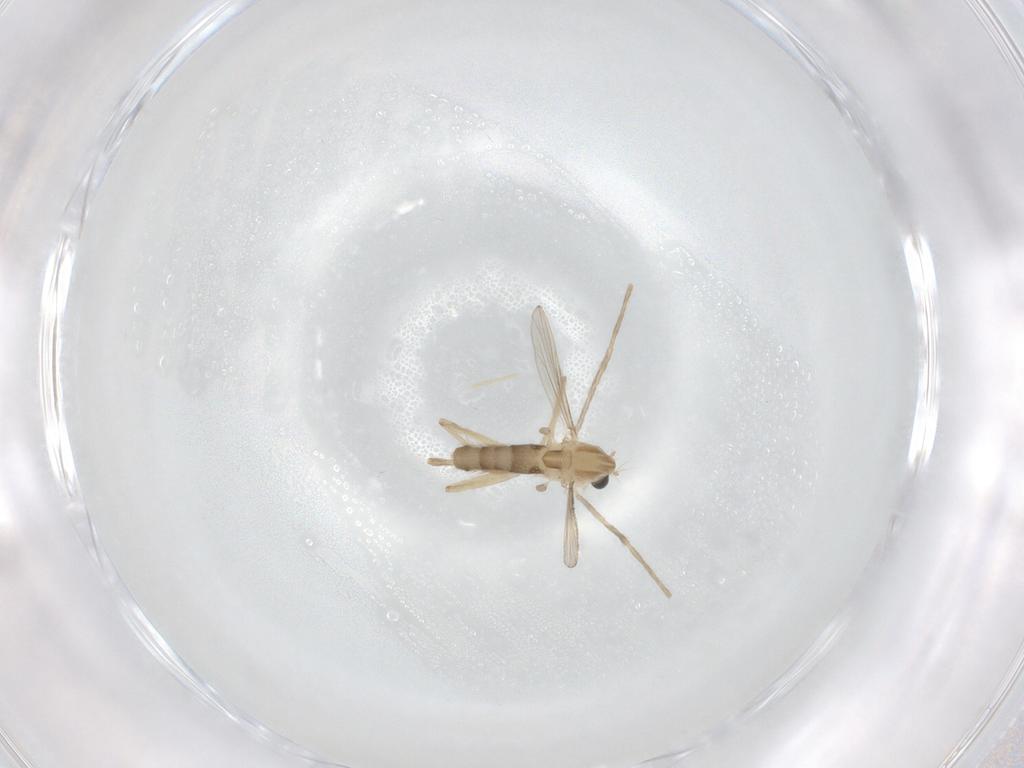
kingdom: Animalia
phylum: Arthropoda
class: Insecta
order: Diptera
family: Chironomidae
